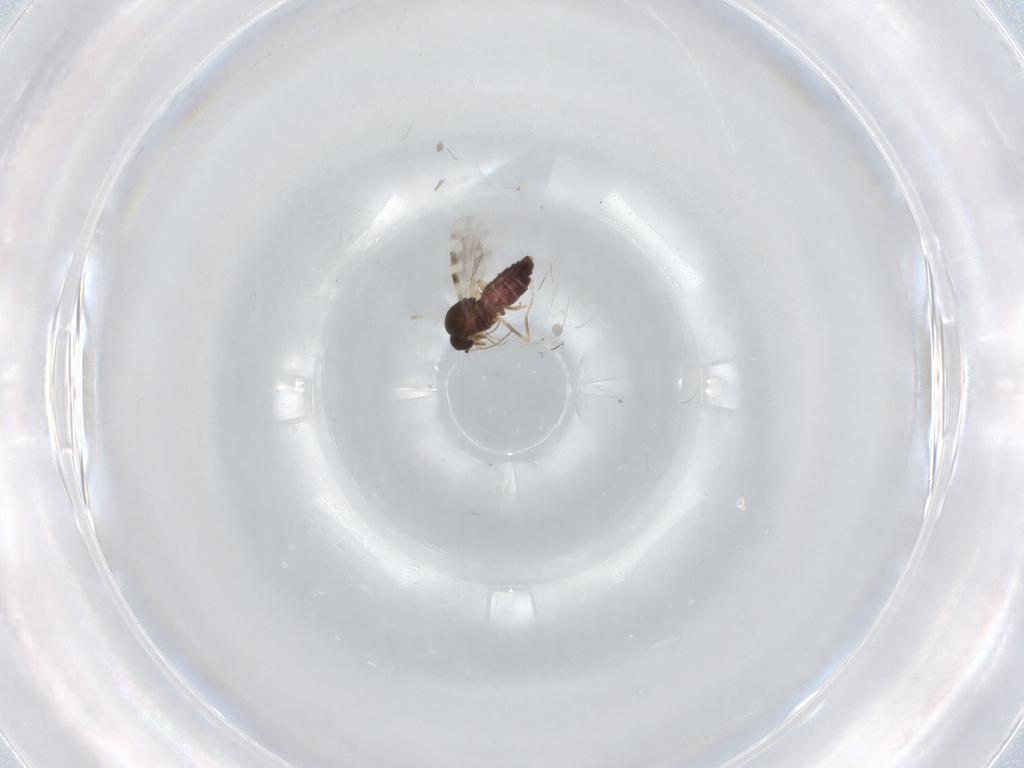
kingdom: Animalia
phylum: Arthropoda
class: Insecta
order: Diptera
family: Ceratopogonidae
